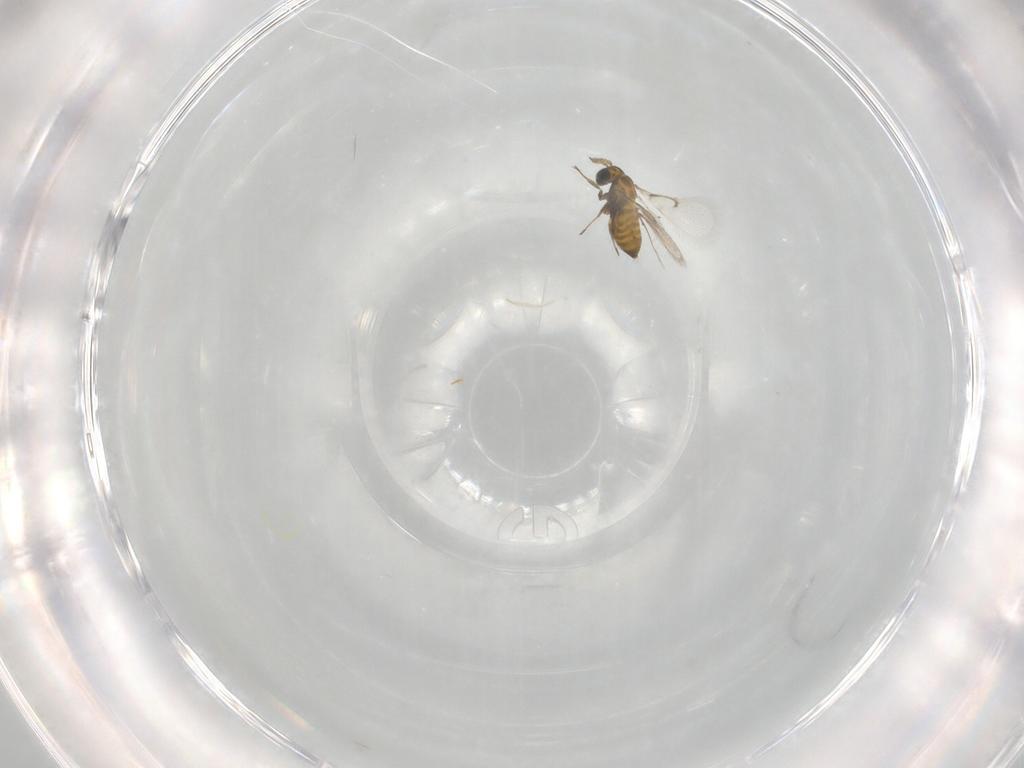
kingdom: Animalia
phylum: Arthropoda
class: Insecta
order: Hymenoptera
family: Trichogrammatidae
